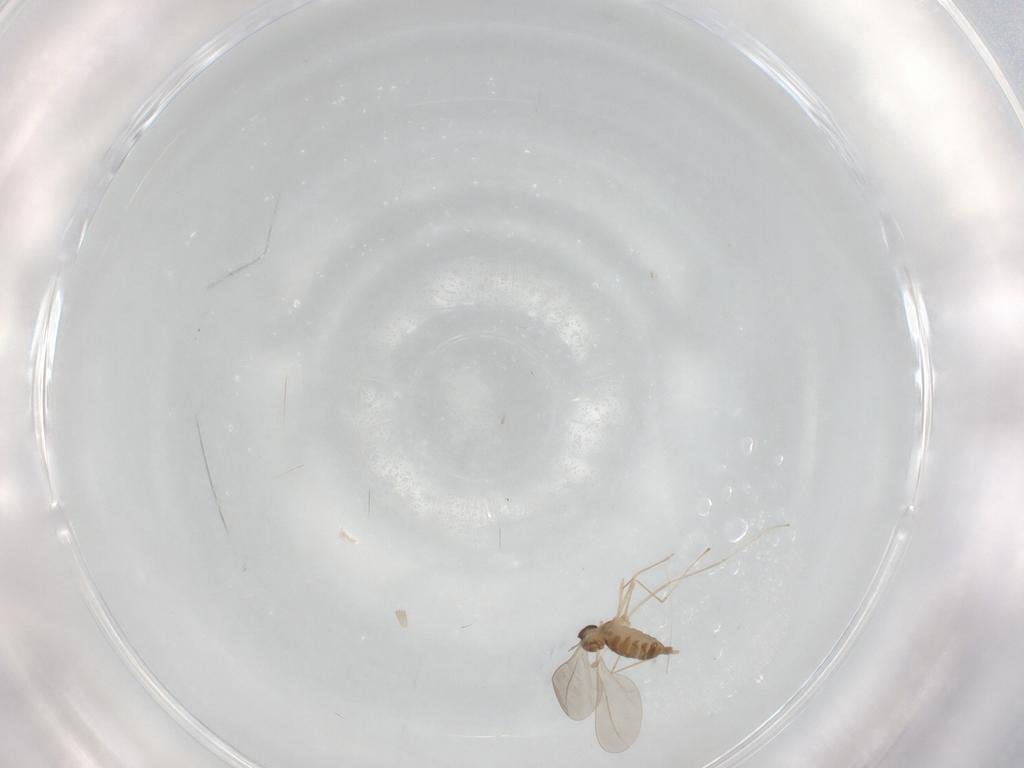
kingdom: Animalia
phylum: Arthropoda
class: Insecta
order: Diptera
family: Cecidomyiidae
